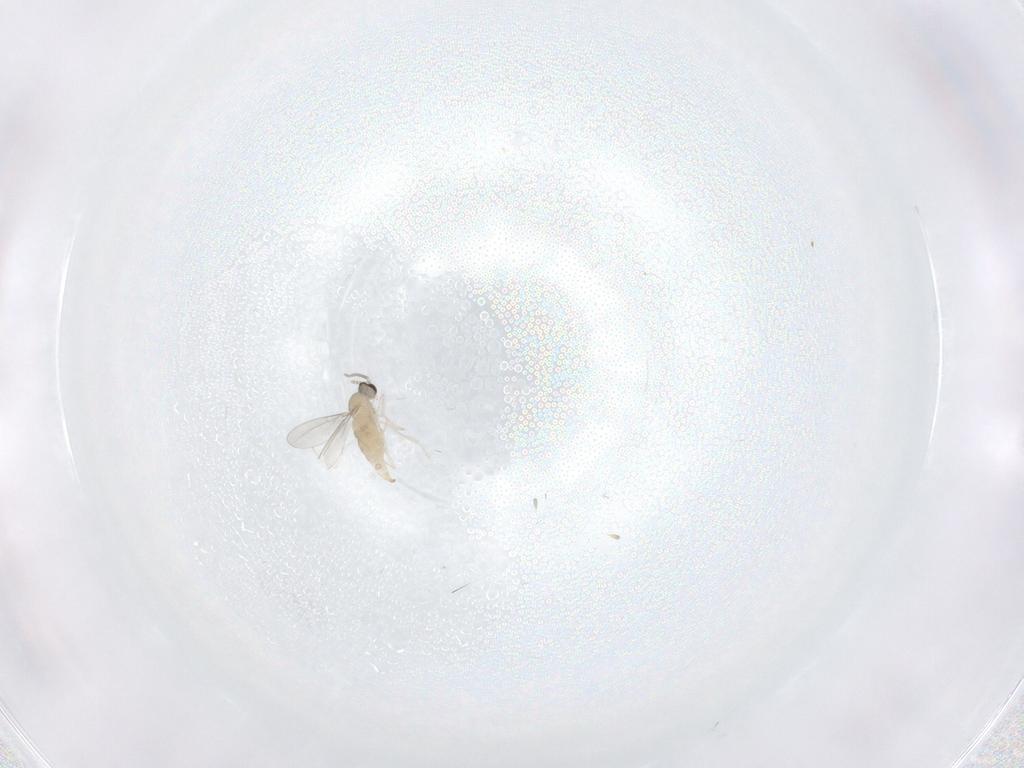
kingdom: Animalia
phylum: Arthropoda
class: Insecta
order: Diptera
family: Cecidomyiidae
